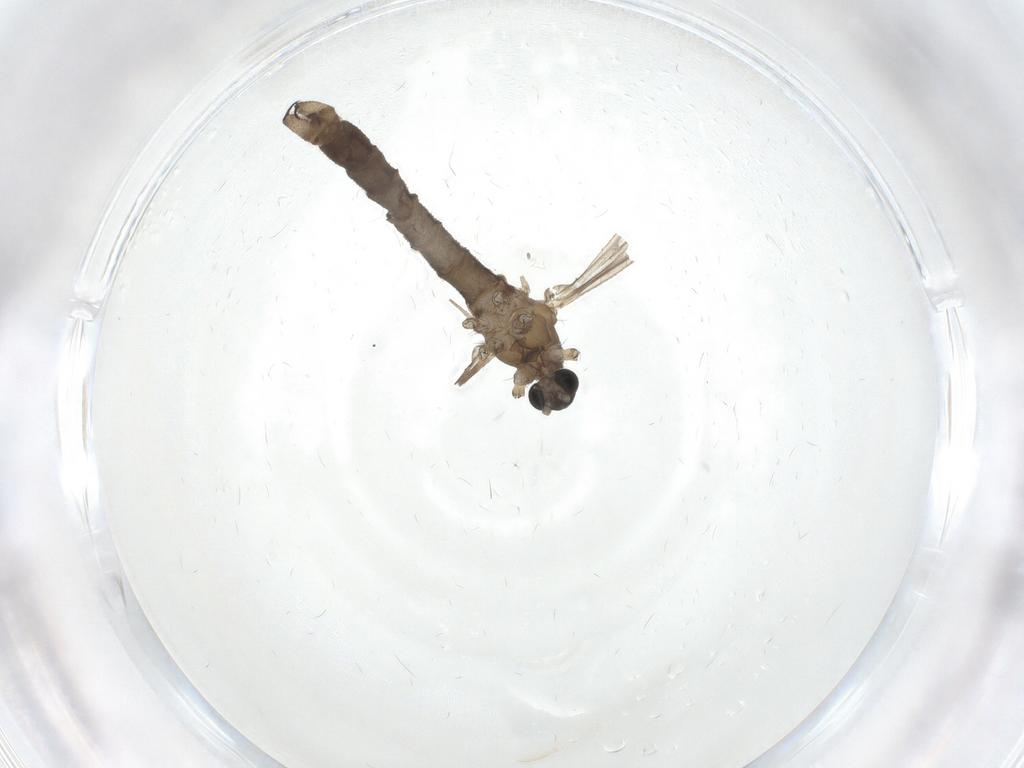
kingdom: Animalia
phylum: Arthropoda
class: Insecta
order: Diptera
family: Limoniidae
